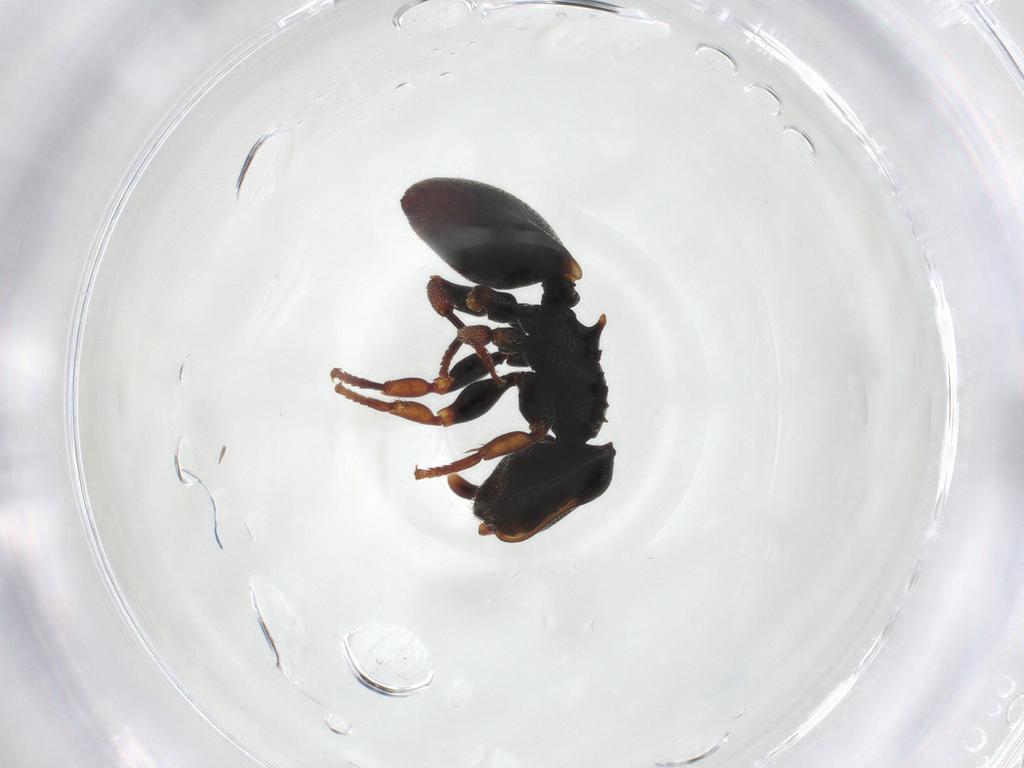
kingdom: Animalia
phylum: Arthropoda
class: Insecta
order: Hymenoptera
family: Formicidae
